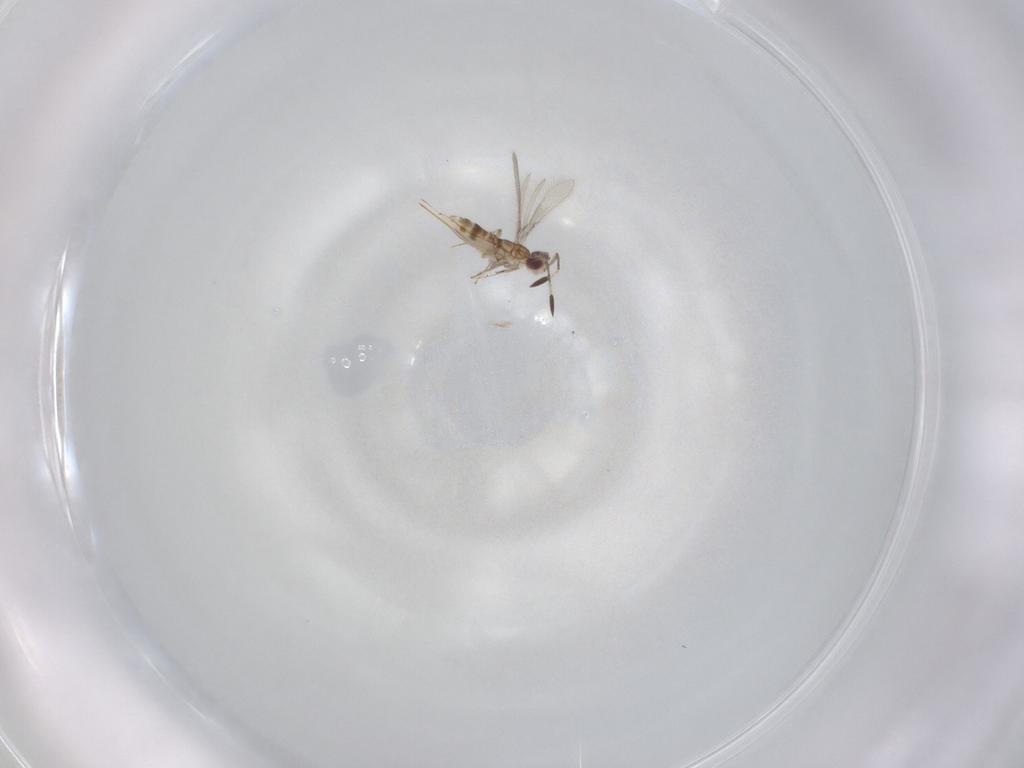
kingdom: Animalia
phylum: Arthropoda
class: Insecta
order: Hymenoptera
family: Mymaridae
